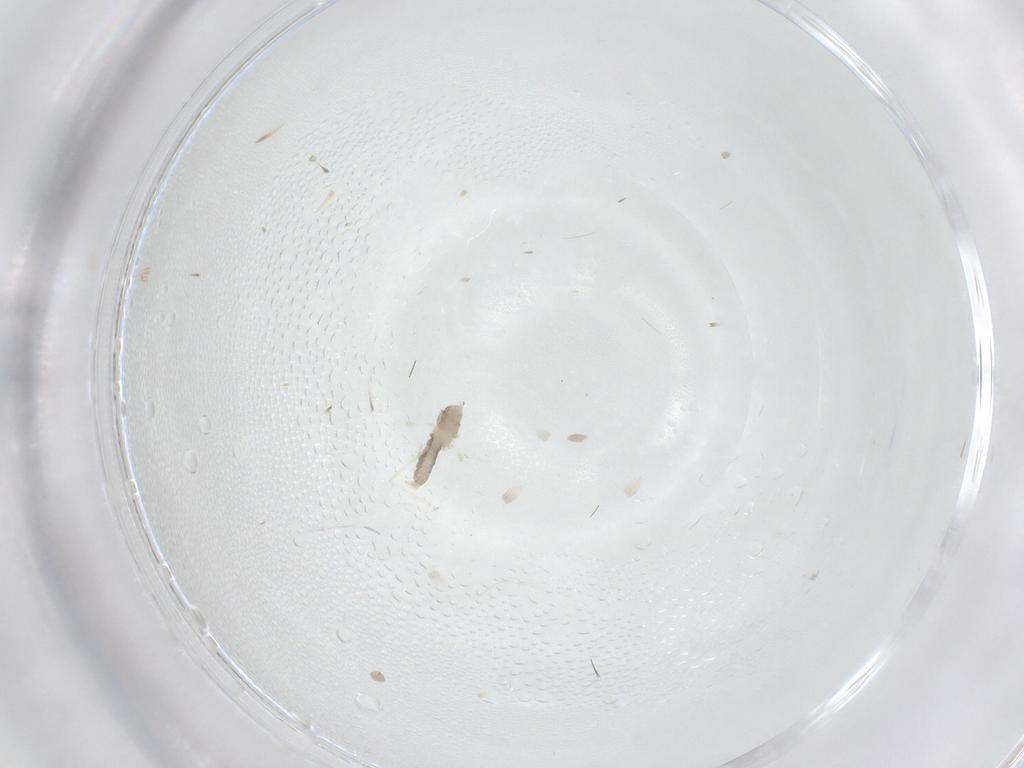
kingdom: Animalia
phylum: Arthropoda
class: Insecta
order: Diptera
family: Cecidomyiidae
